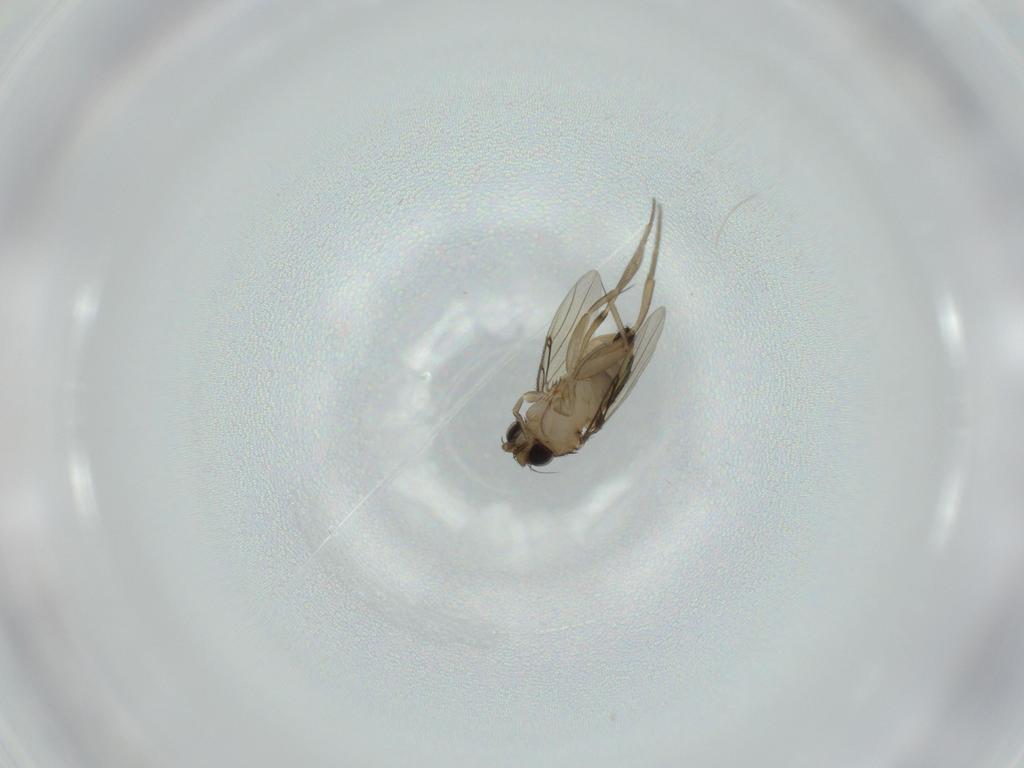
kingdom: Animalia
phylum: Arthropoda
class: Insecta
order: Diptera
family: Phoridae
